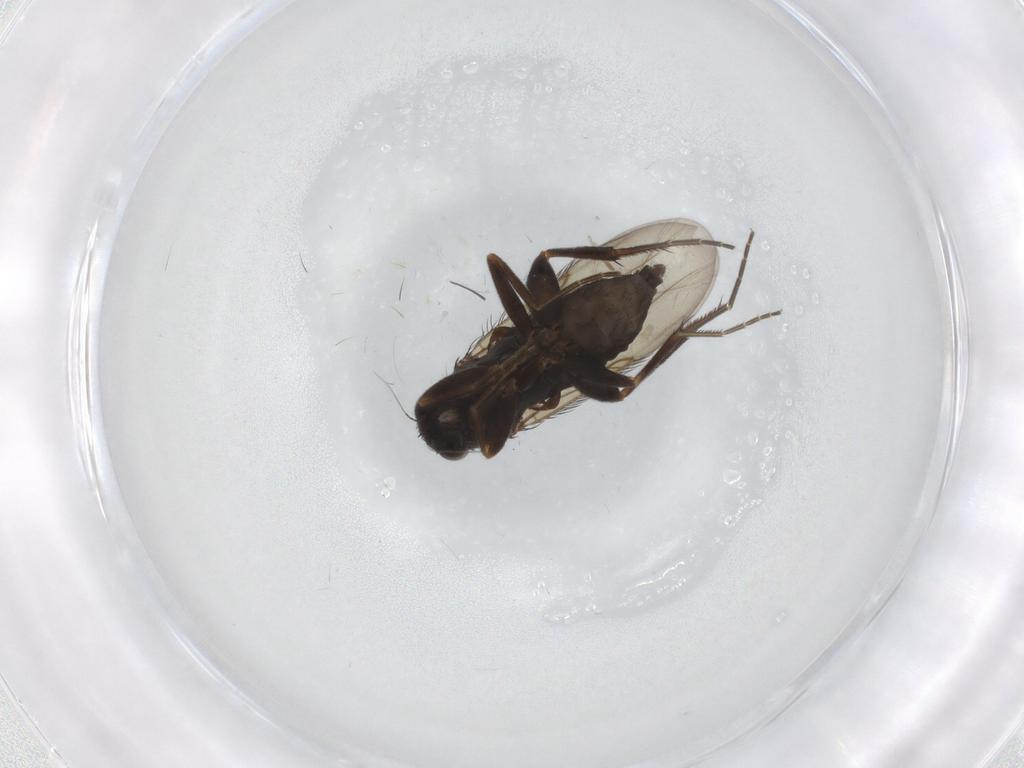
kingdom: Animalia
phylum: Arthropoda
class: Insecta
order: Diptera
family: Phoridae
